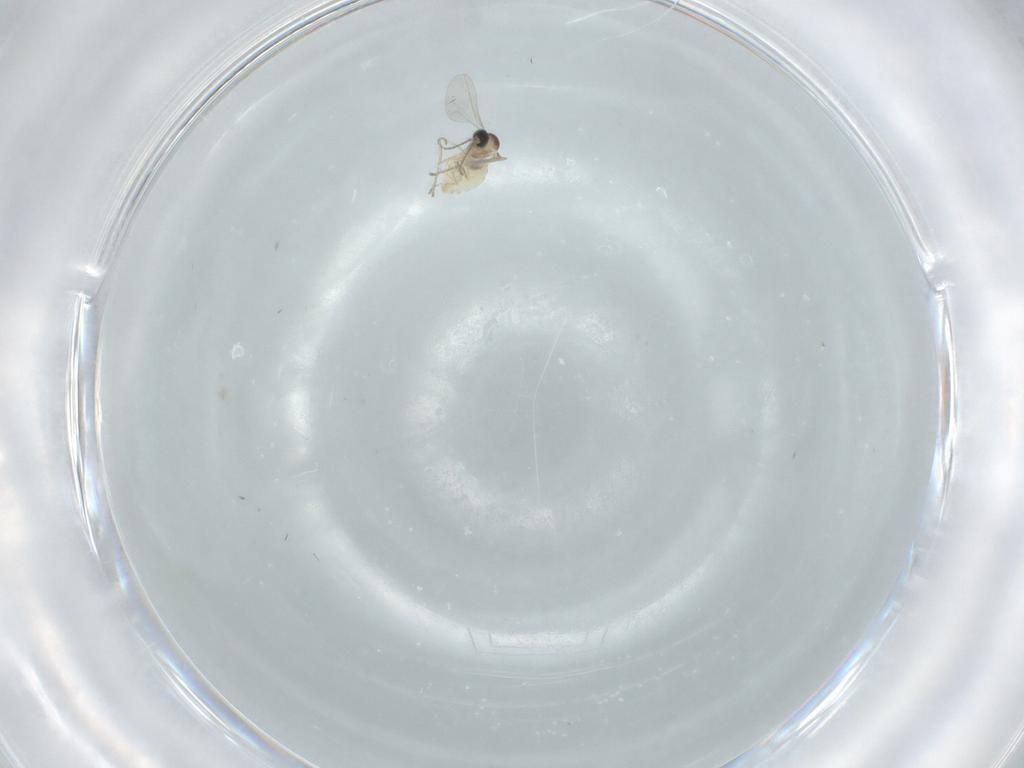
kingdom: Animalia
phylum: Arthropoda
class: Insecta
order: Diptera
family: Cecidomyiidae
